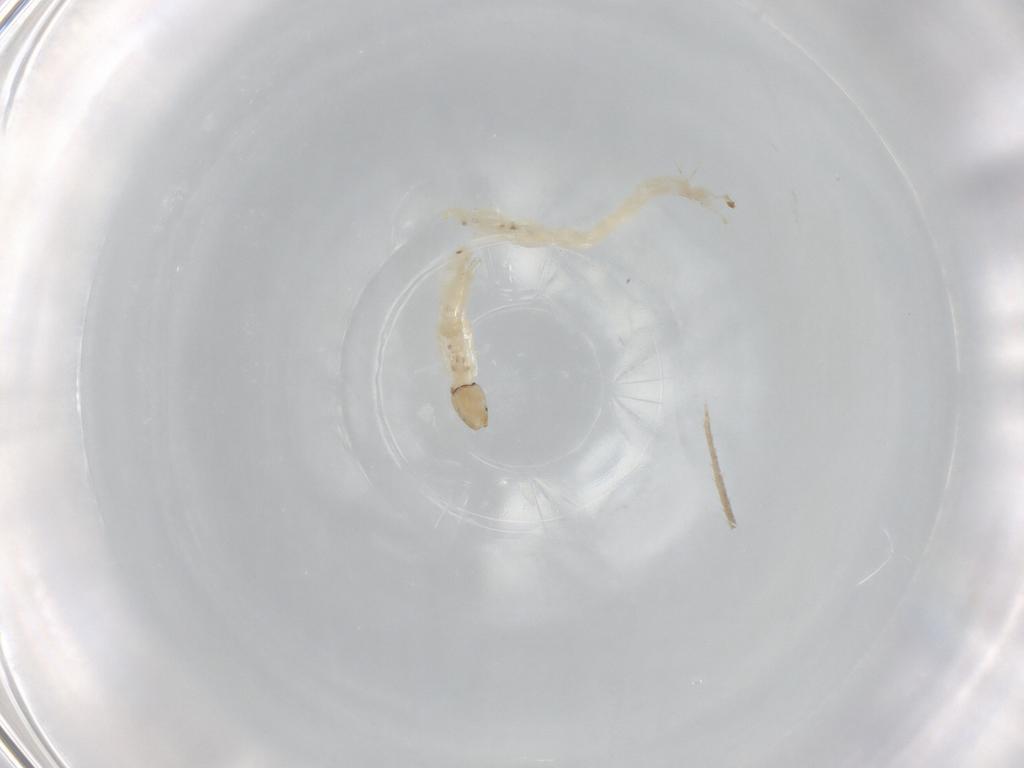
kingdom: Animalia
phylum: Arthropoda
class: Insecta
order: Diptera
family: Chironomidae
